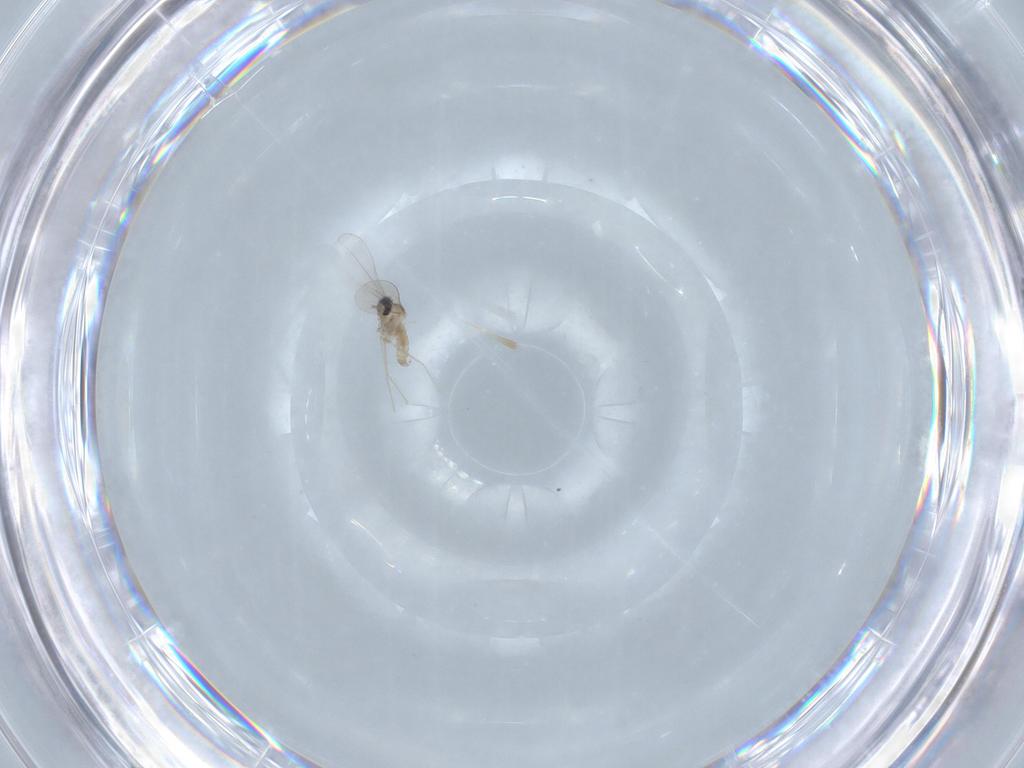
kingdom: Animalia
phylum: Arthropoda
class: Insecta
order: Diptera
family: Cecidomyiidae
